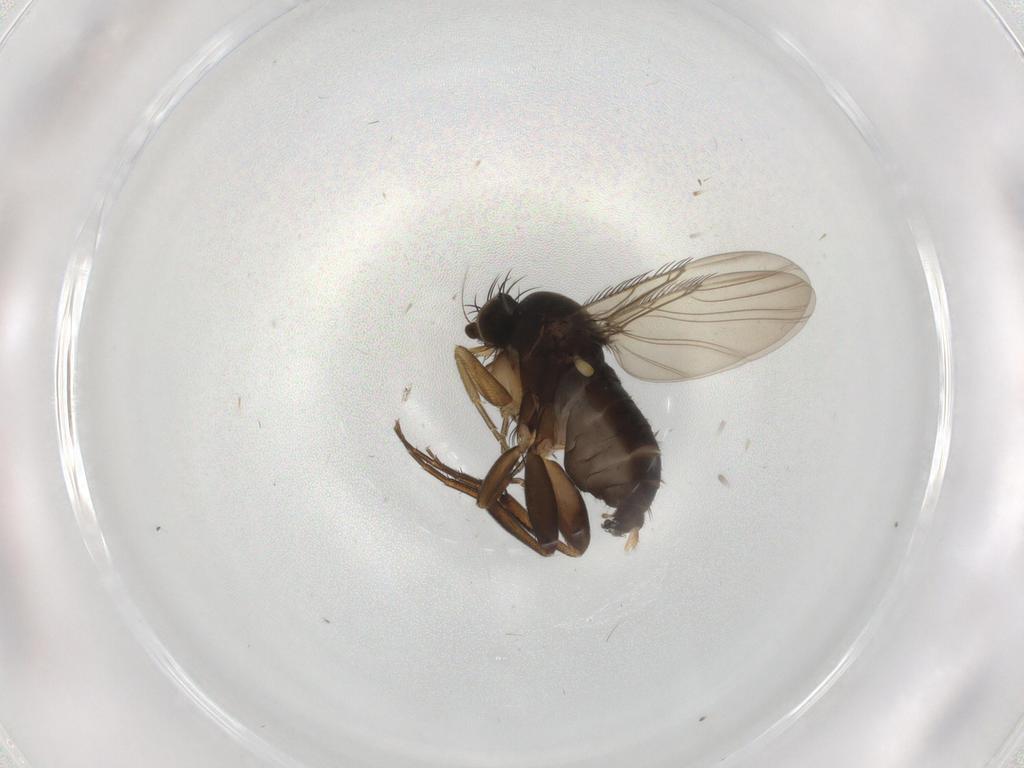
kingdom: Animalia
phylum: Arthropoda
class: Insecta
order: Diptera
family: Phoridae
